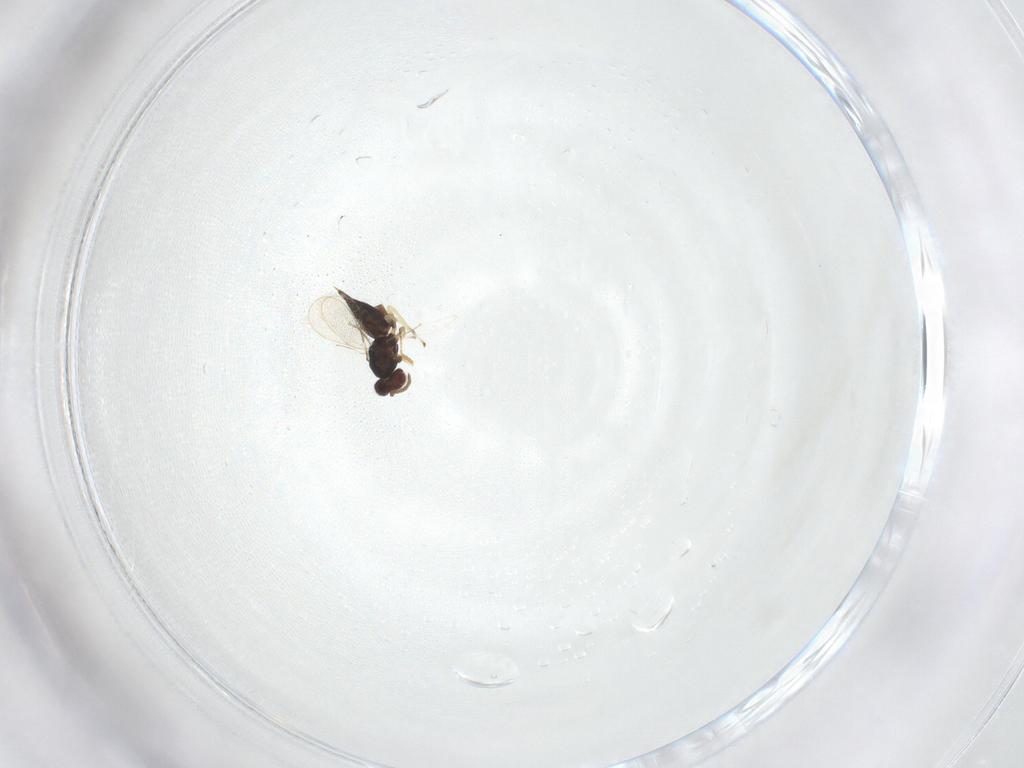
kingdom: Animalia
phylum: Arthropoda
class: Insecta
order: Hymenoptera
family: Eulophidae
